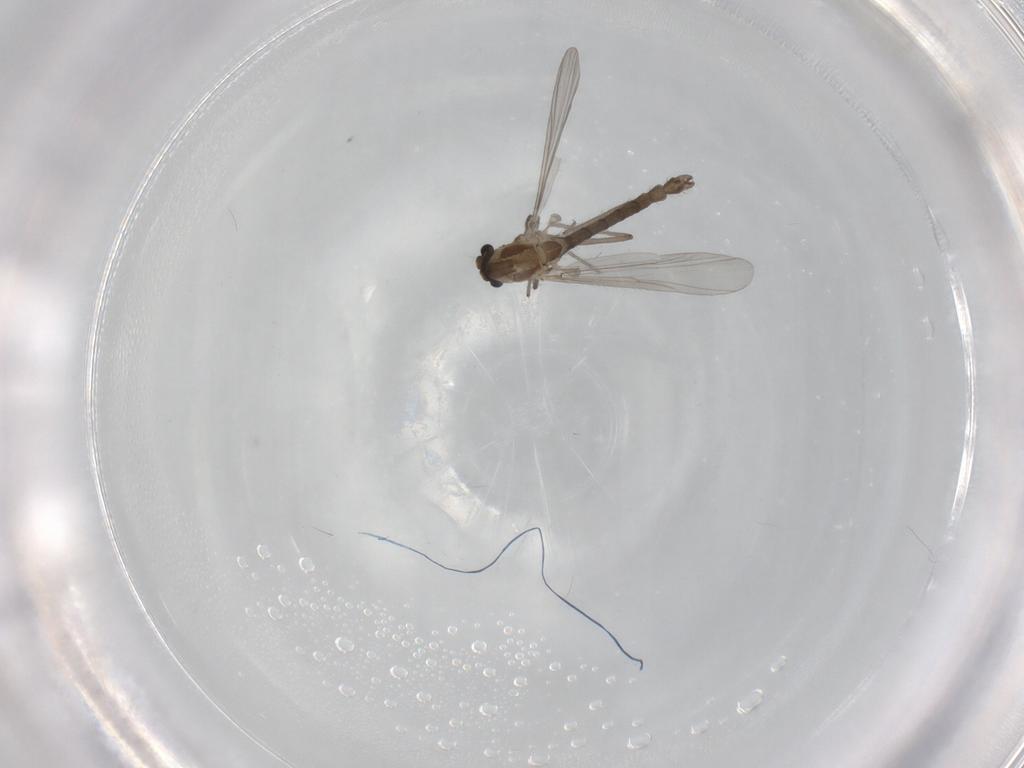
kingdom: Animalia
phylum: Arthropoda
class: Insecta
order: Diptera
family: Chironomidae
